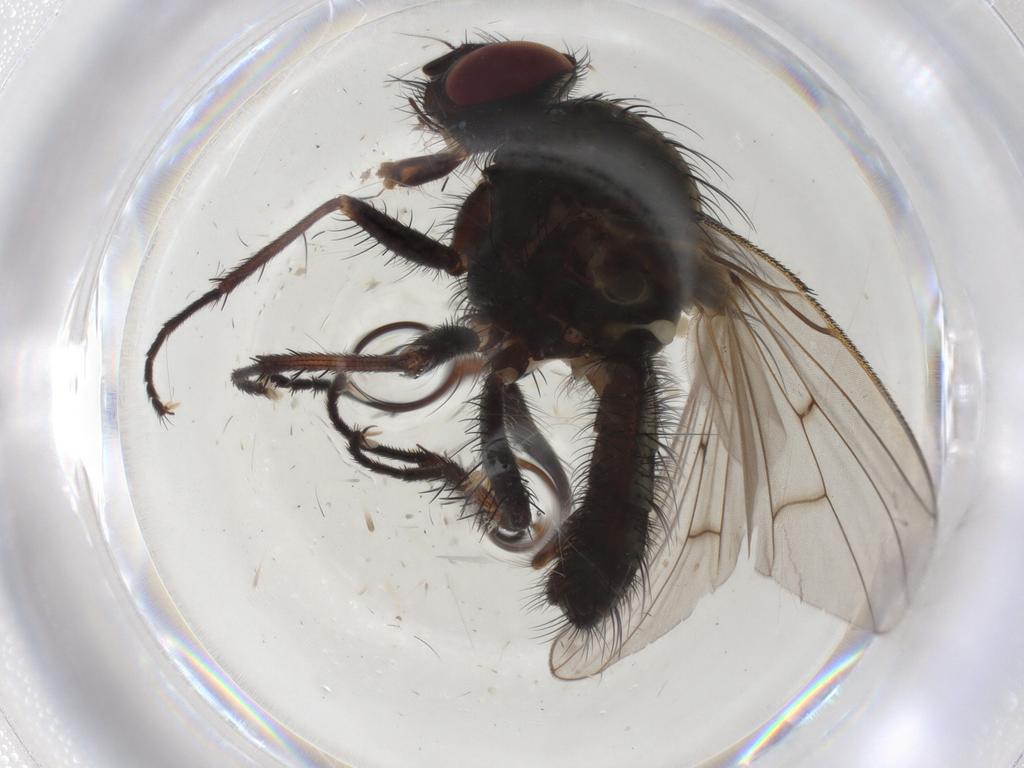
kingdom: Animalia
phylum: Arthropoda
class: Insecta
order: Diptera
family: Anthomyiidae
